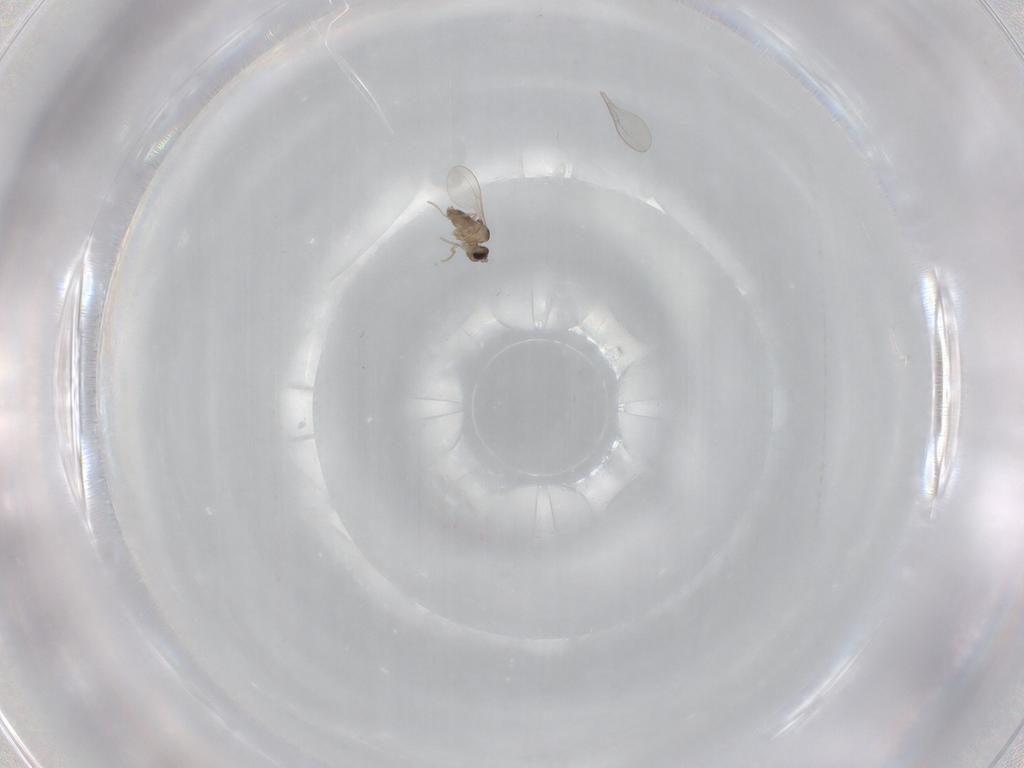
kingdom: Animalia
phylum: Arthropoda
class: Insecta
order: Diptera
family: Cecidomyiidae
